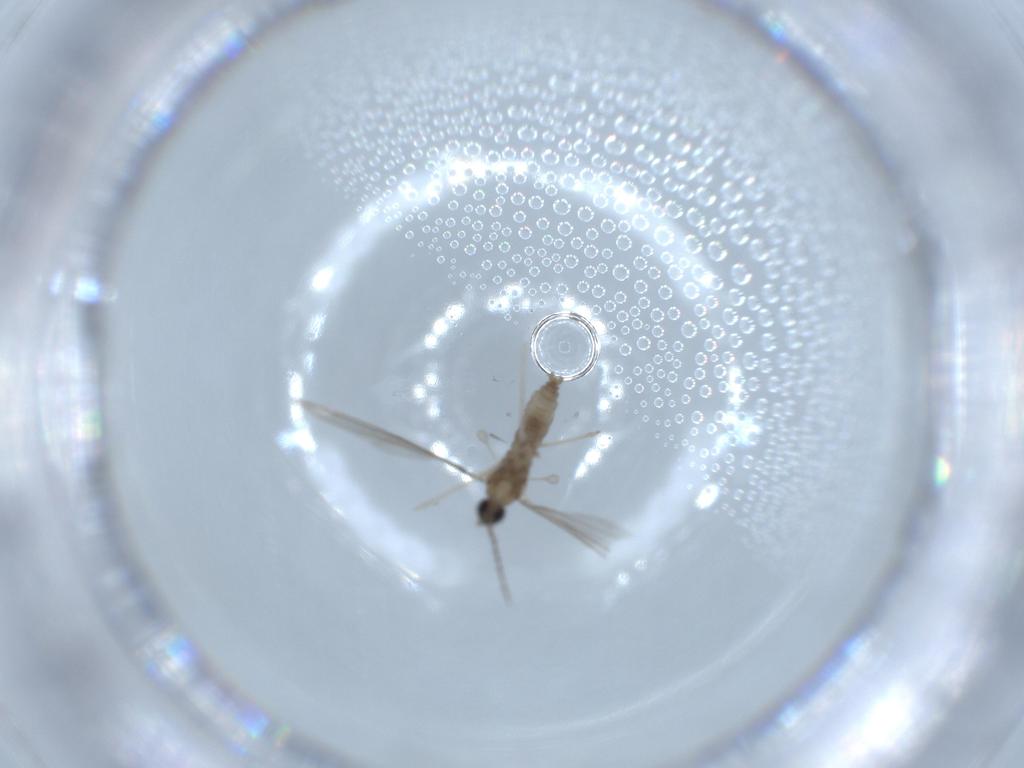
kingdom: Animalia
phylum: Arthropoda
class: Insecta
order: Diptera
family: Cecidomyiidae
